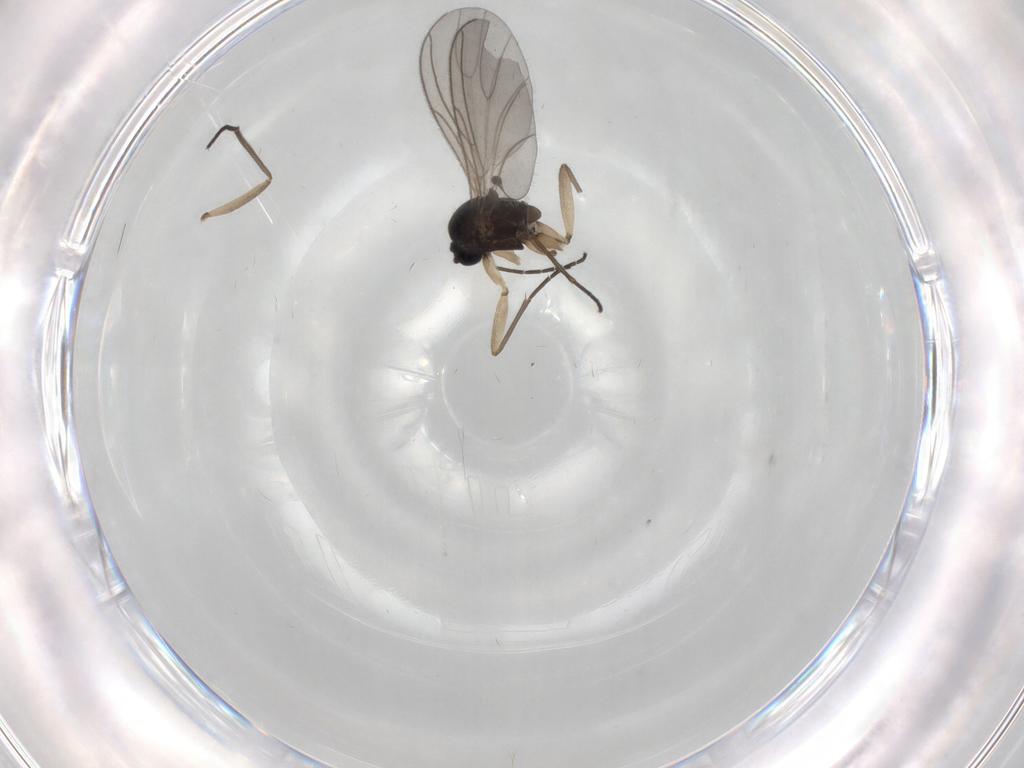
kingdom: Animalia
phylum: Arthropoda
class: Insecta
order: Diptera
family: Sciaridae
